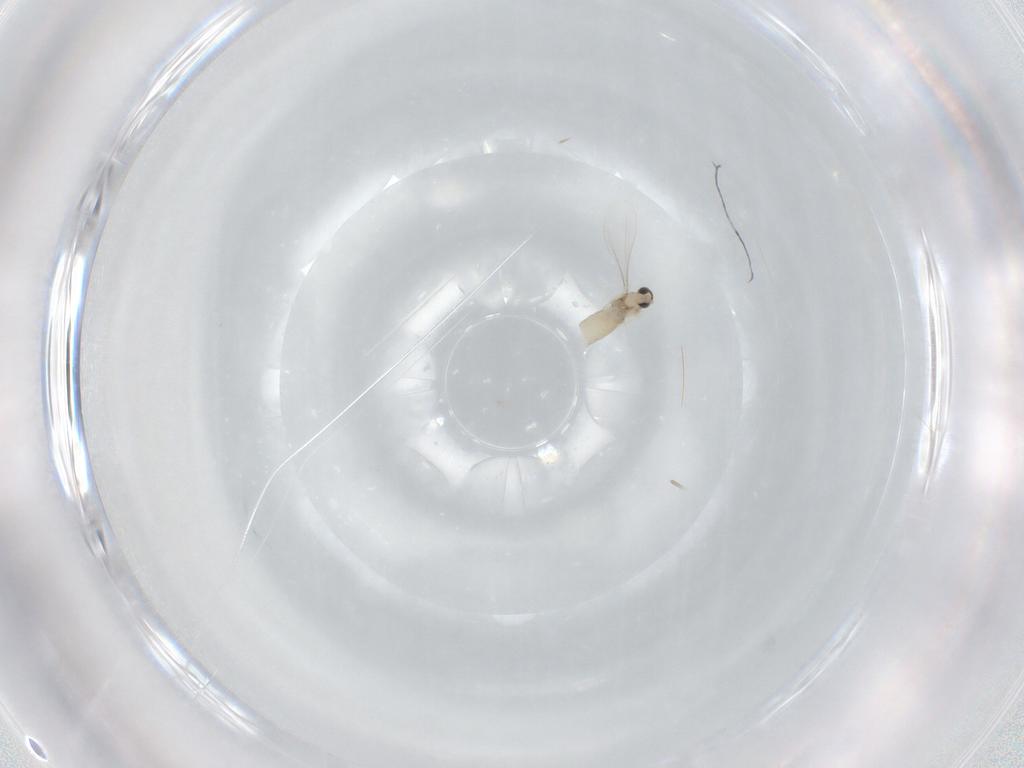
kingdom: Animalia
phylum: Arthropoda
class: Insecta
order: Diptera
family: Cecidomyiidae
